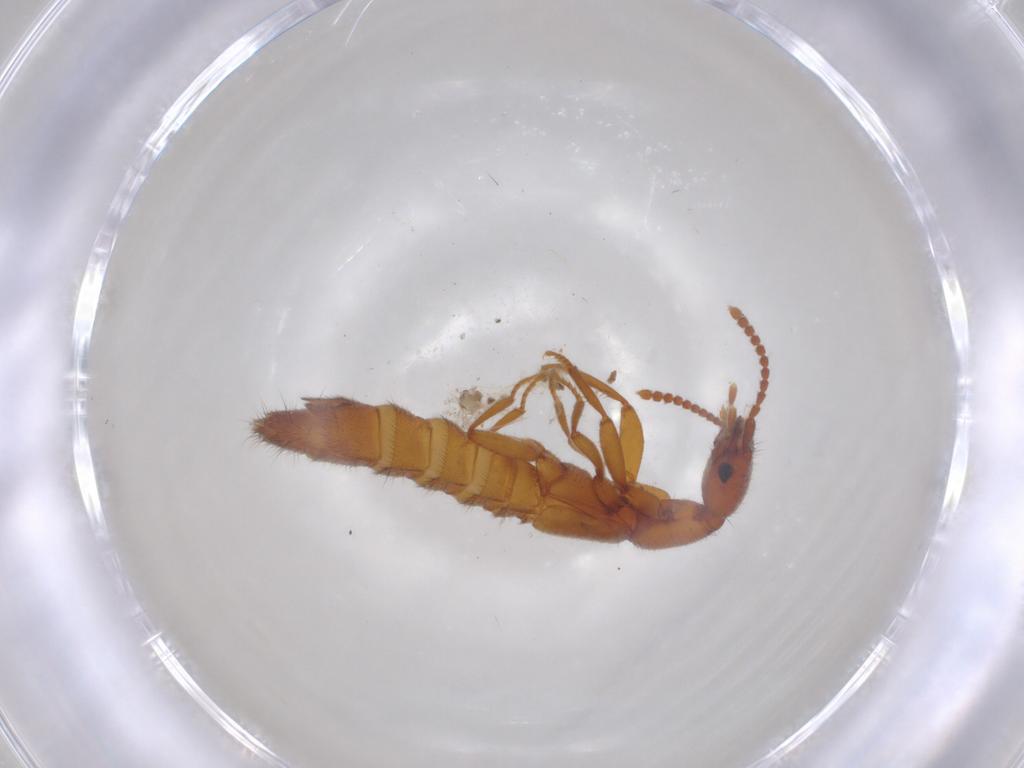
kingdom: Animalia
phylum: Arthropoda
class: Insecta
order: Coleoptera
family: Staphylinidae
